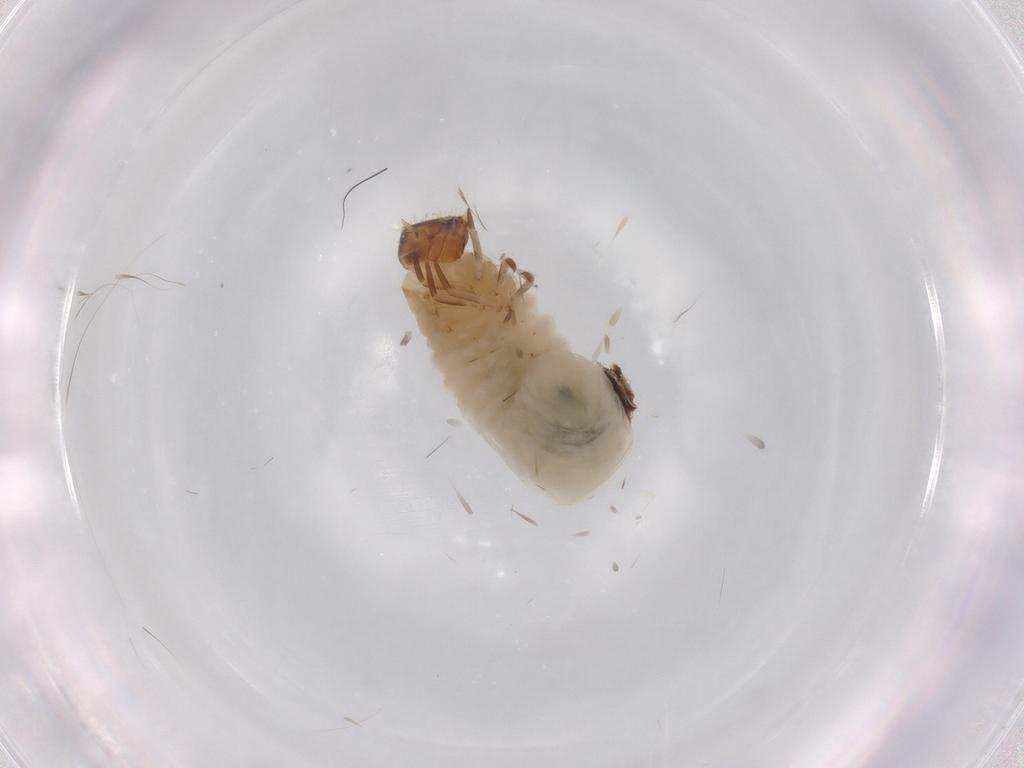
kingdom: Animalia
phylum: Arthropoda
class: Insecta
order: Coleoptera
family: Chrysomelidae
